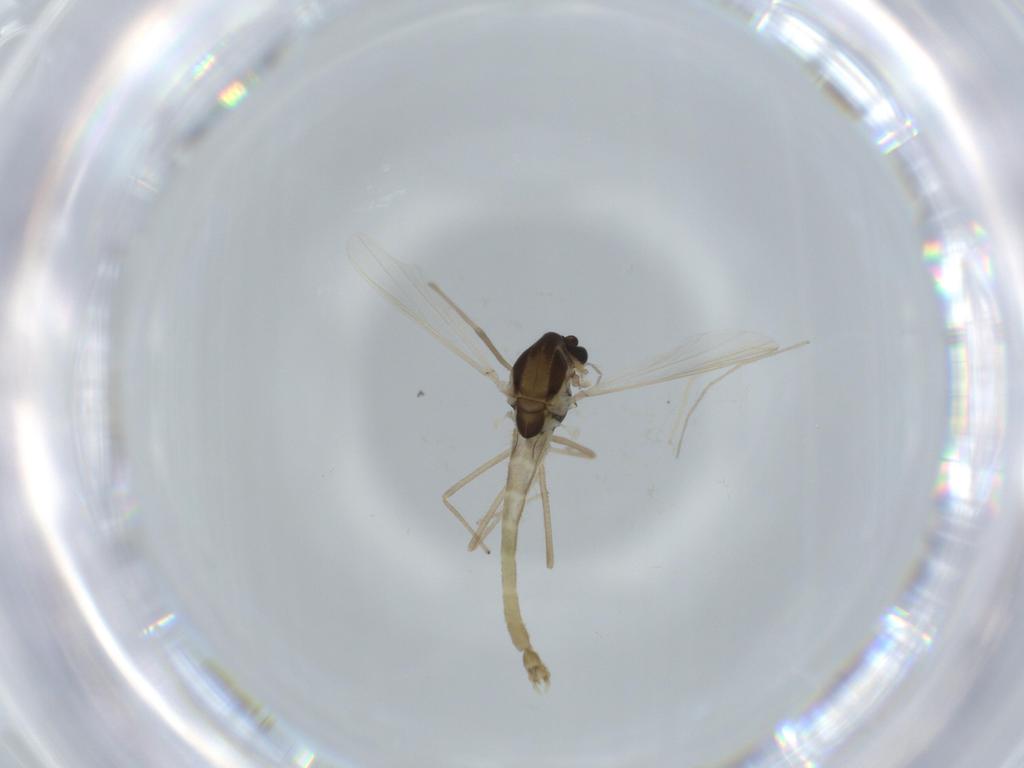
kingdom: Animalia
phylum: Arthropoda
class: Insecta
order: Diptera
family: Chironomidae
